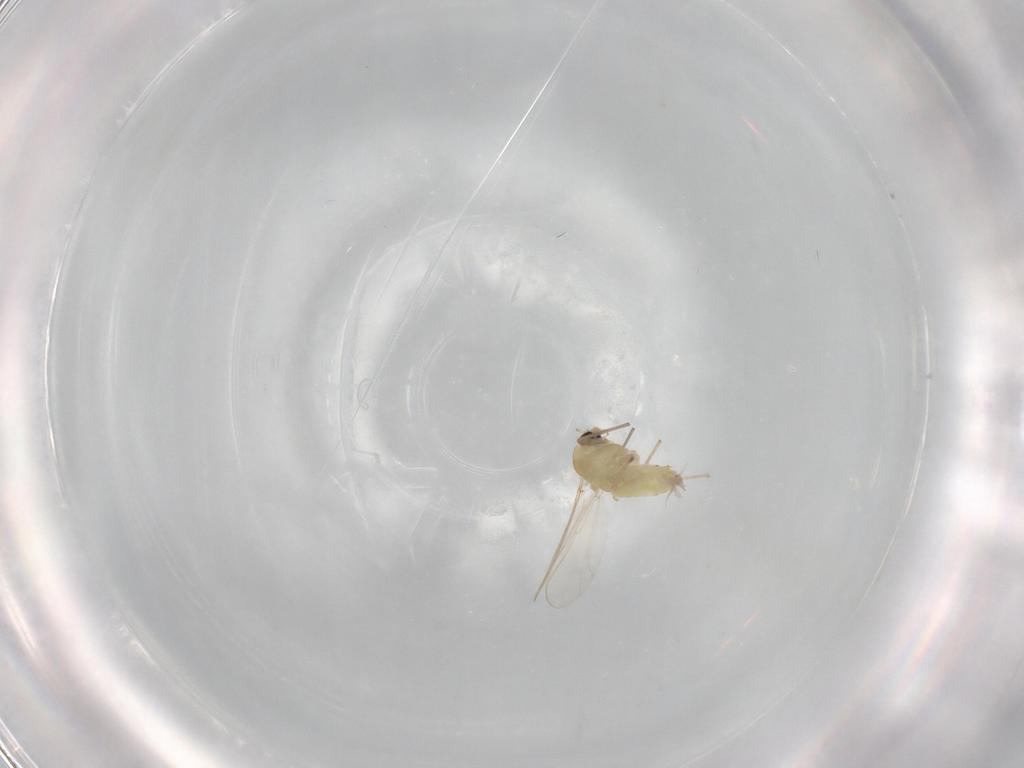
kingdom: Animalia
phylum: Arthropoda
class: Insecta
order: Diptera
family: Chironomidae
